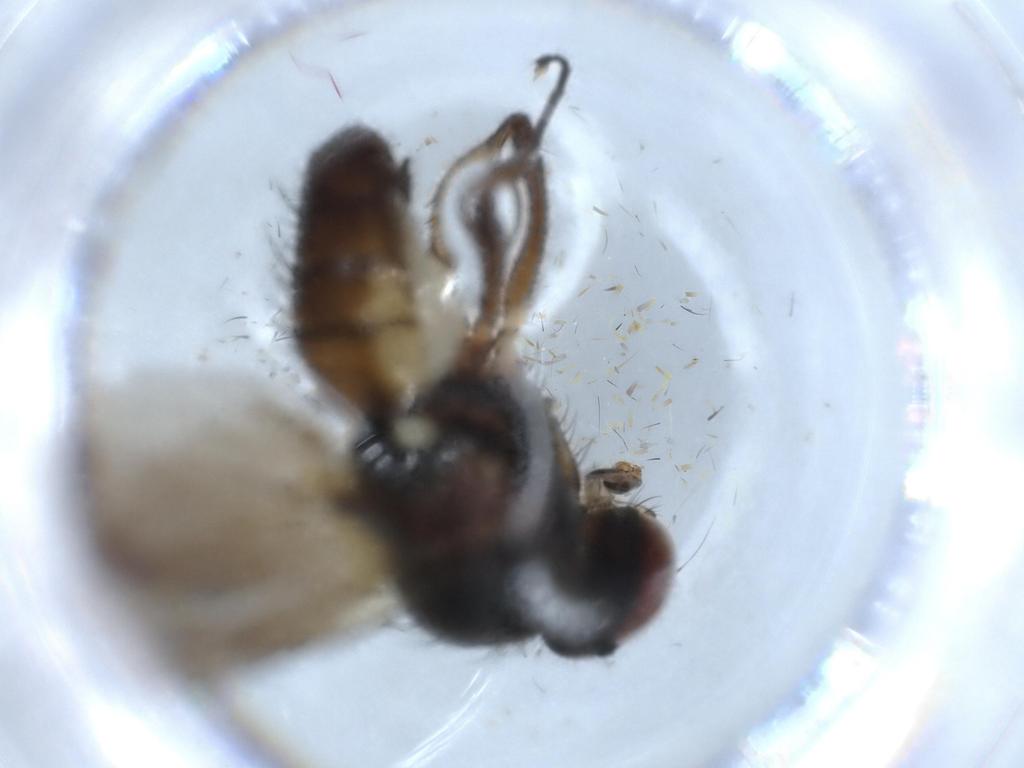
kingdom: Animalia
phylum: Arthropoda
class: Insecta
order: Diptera
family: Anthomyiidae
